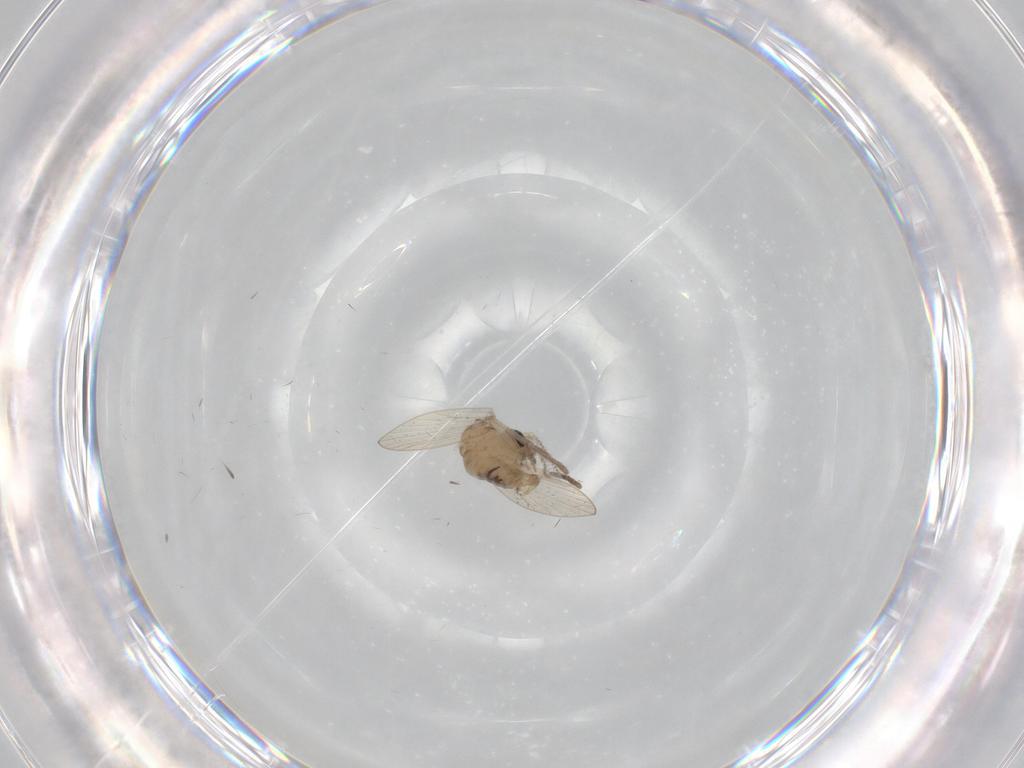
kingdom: Animalia
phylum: Arthropoda
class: Insecta
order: Diptera
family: Psychodidae
